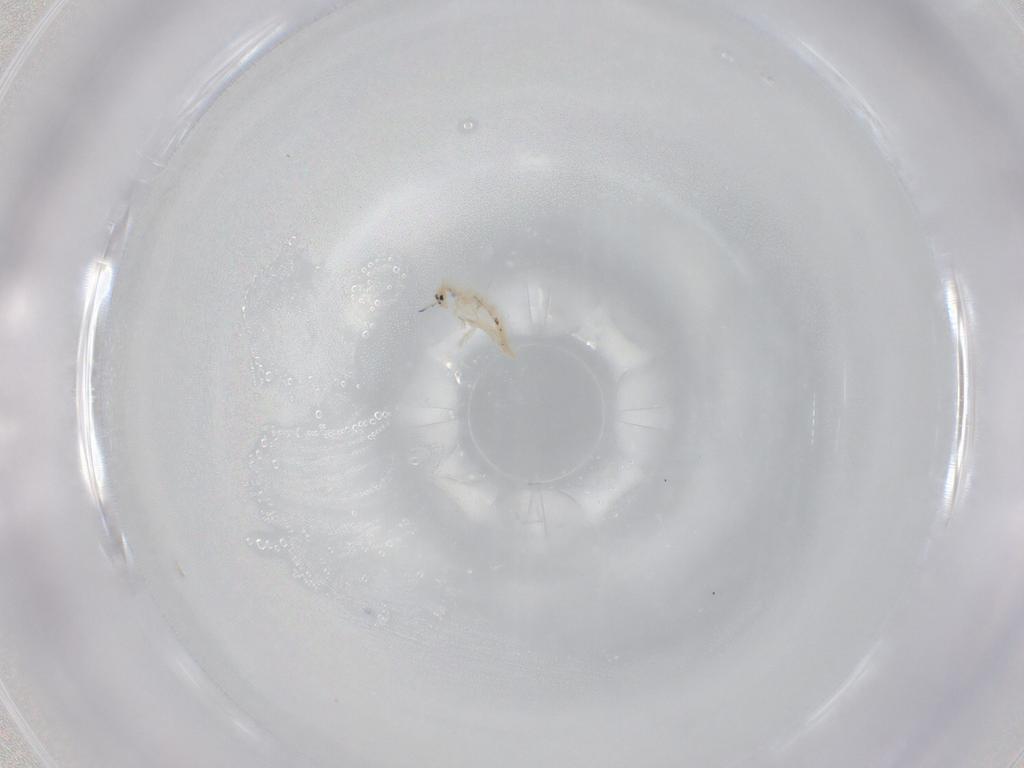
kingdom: Animalia
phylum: Arthropoda
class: Collembola
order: Entomobryomorpha
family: Entomobryidae
